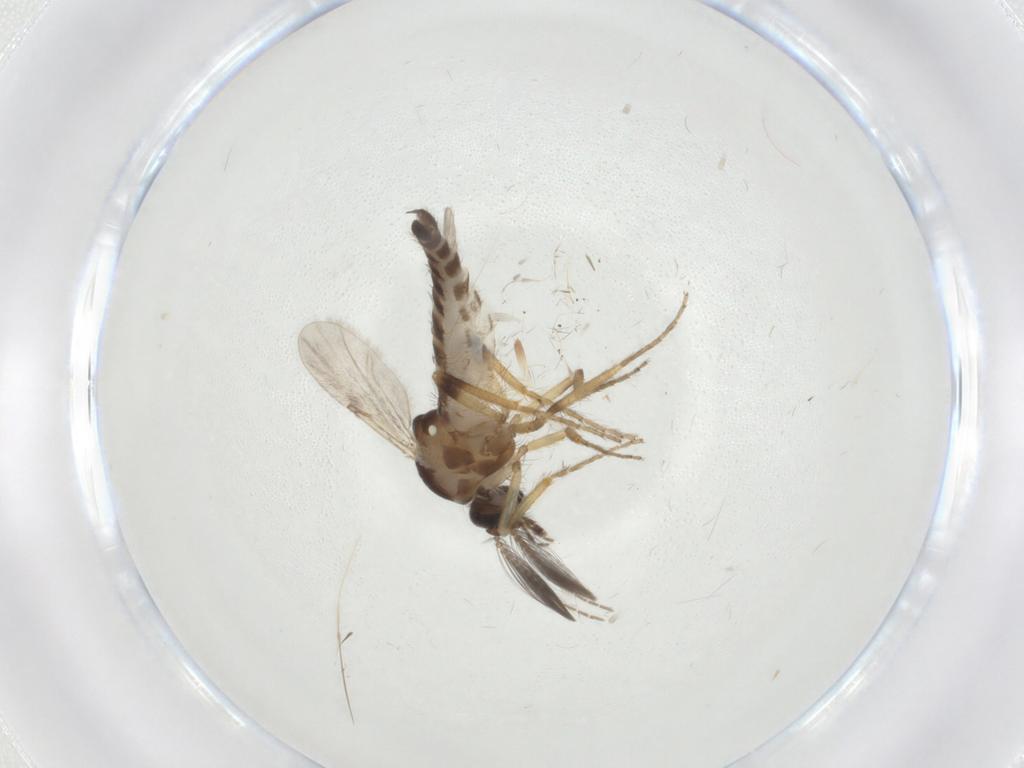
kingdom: Animalia
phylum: Arthropoda
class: Insecta
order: Diptera
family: Ceratopogonidae
